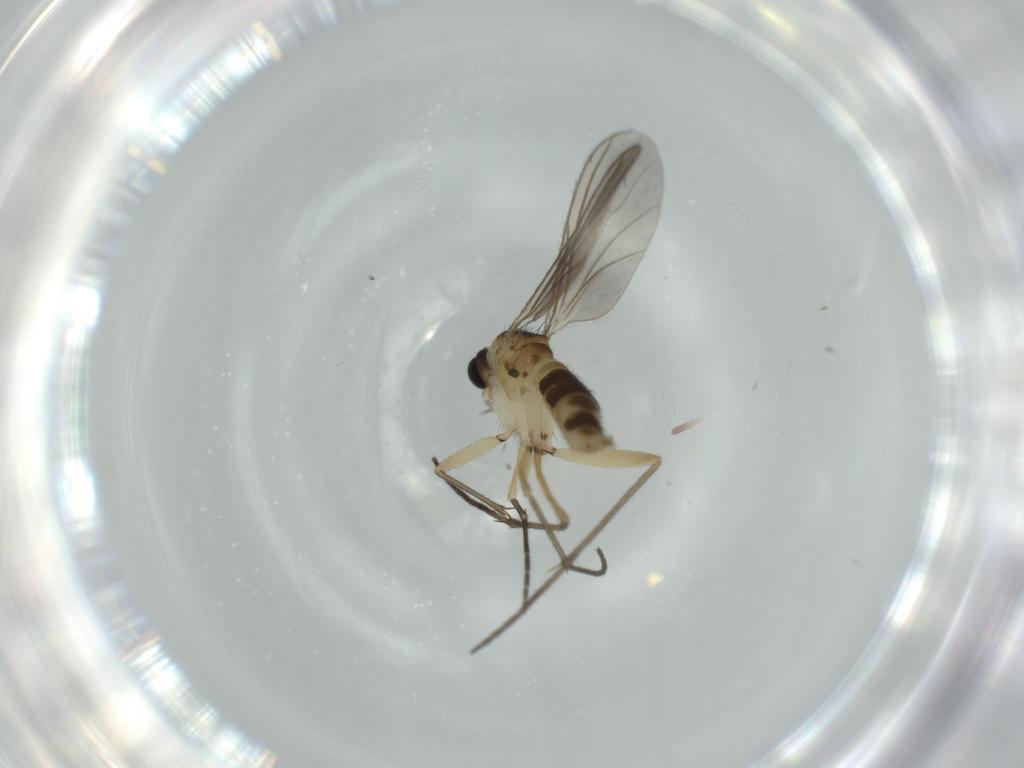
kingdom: Animalia
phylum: Arthropoda
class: Insecta
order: Diptera
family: Sciaridae
